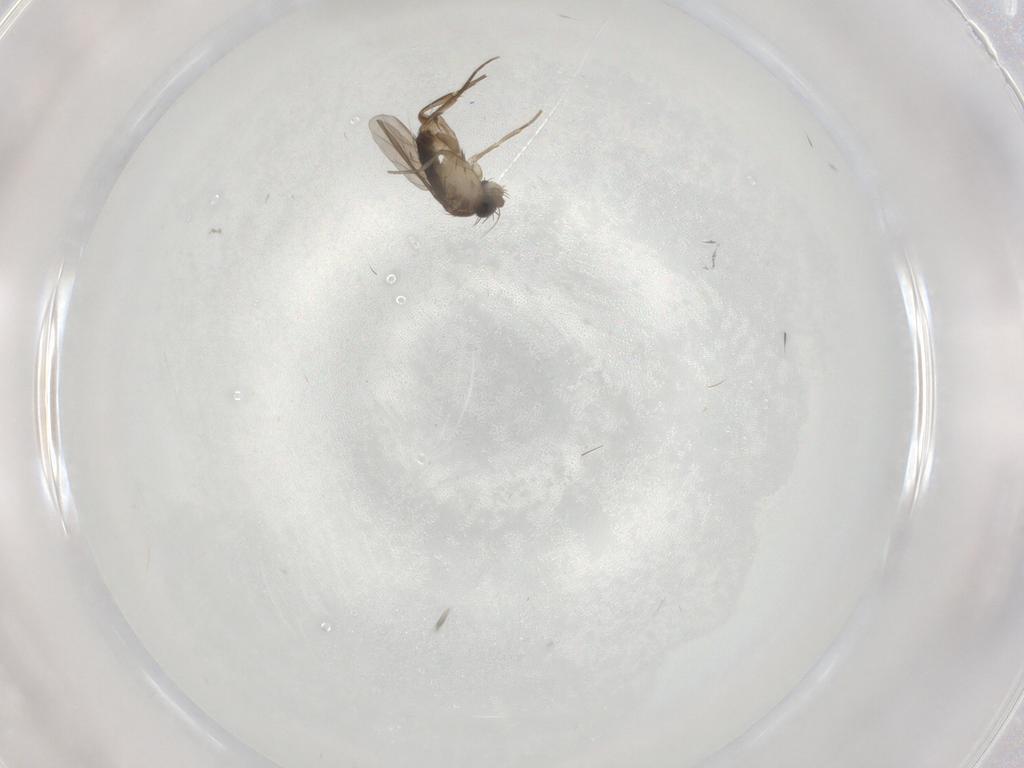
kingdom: Animalia
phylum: Arthropoda
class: Insecta
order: Diptera
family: Phoridae
